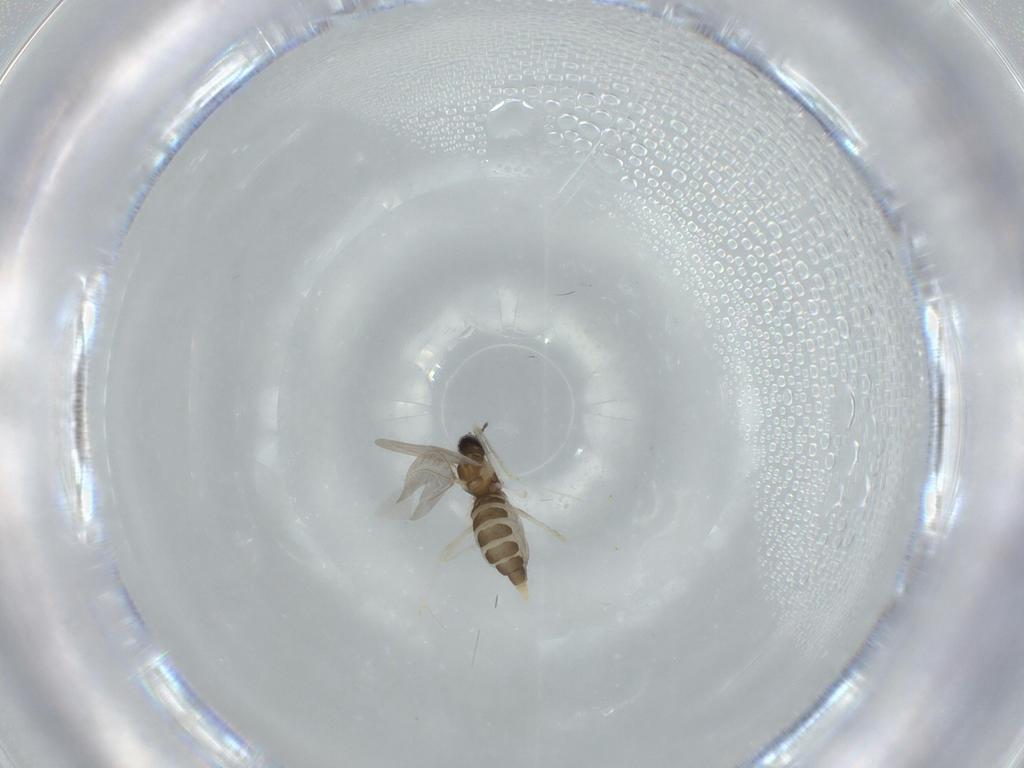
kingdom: Animalia
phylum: Arthropoda
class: Insecta
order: Diptera
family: Cecidomyiidae
